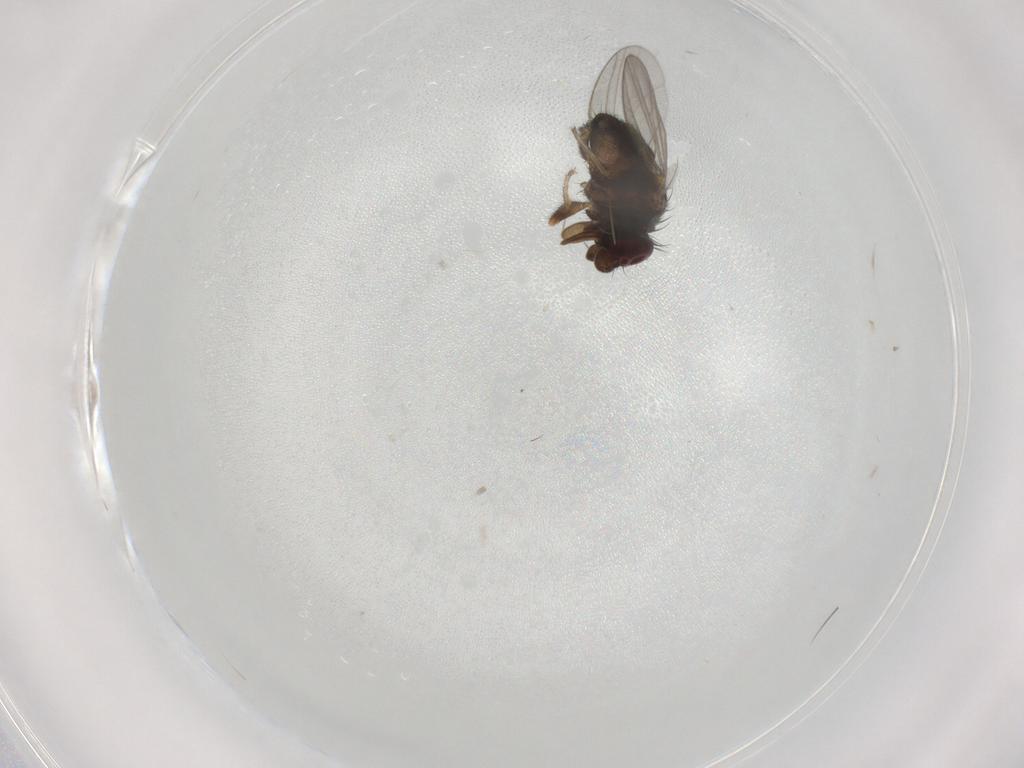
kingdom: Animalia
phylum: Arthropoda
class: Insecta
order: Diptera
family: Milichiidae
